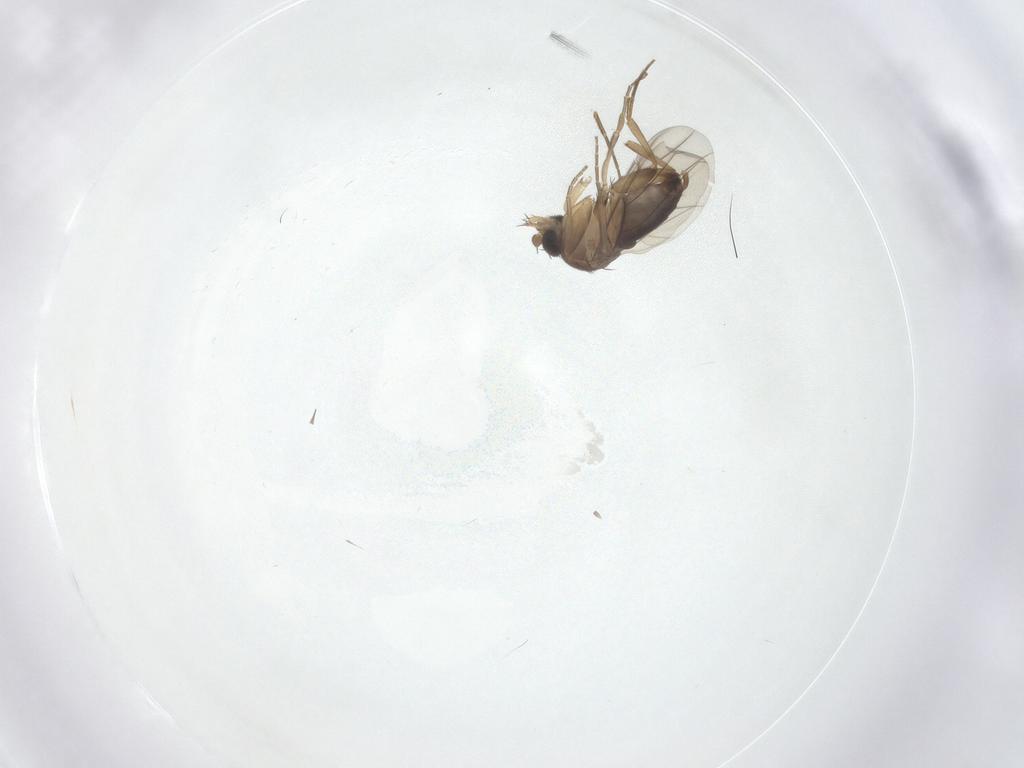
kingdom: Animalia
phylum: Arthropoda
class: Insecta
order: Diptera
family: Phoridae
